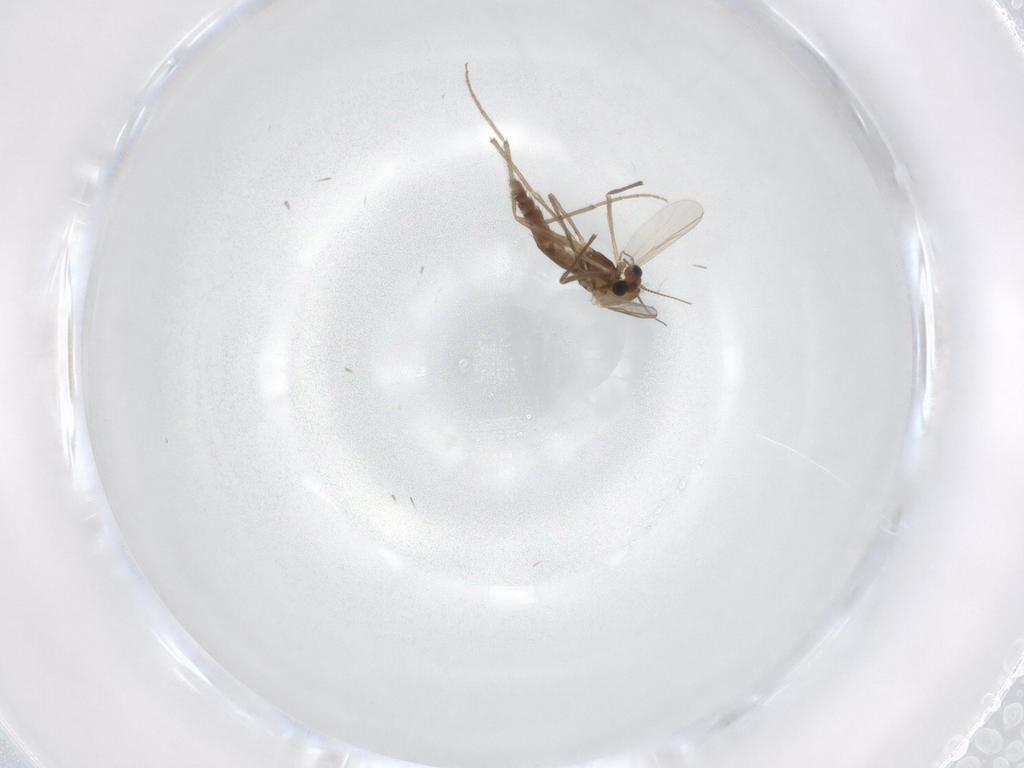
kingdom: Animalia
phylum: Arthropoda
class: Insecta
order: Diptera
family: Chironomidae
